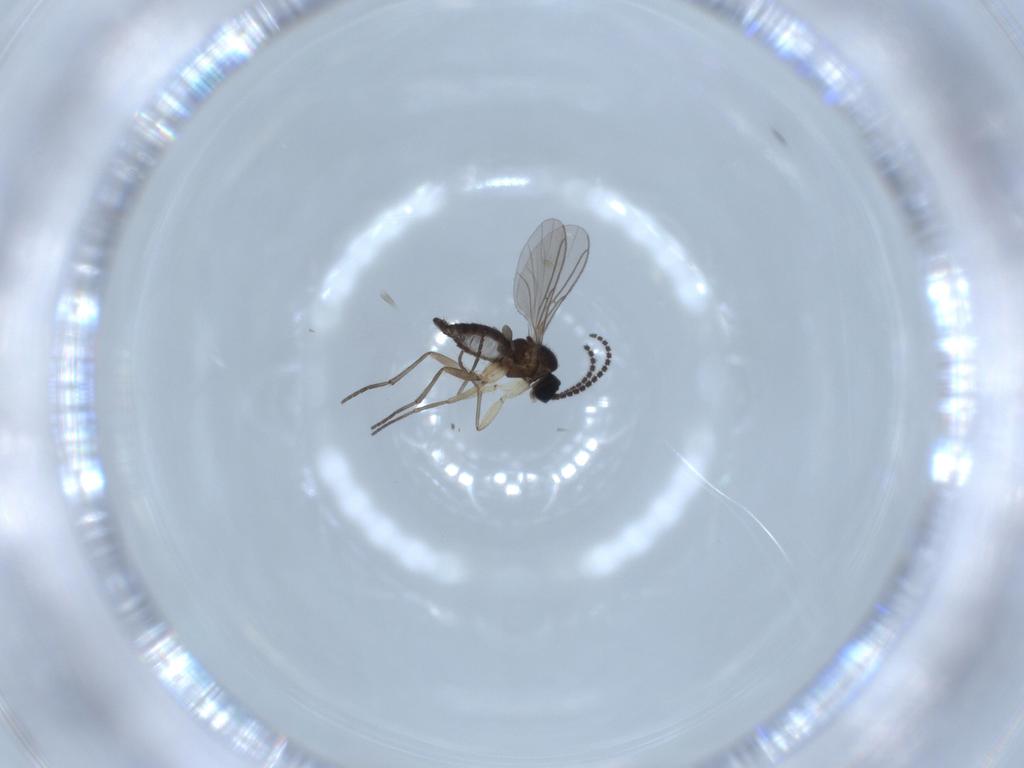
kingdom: Animalia
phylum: Arthropoda
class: Insecta
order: Diptera
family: Sciaridae
